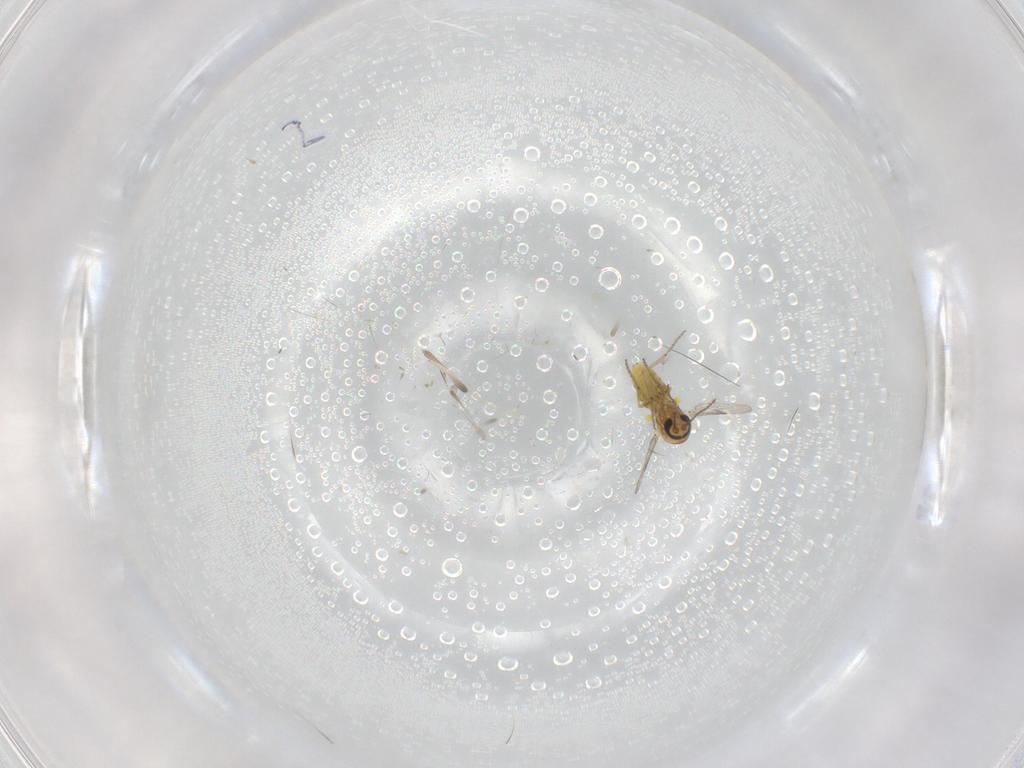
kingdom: Animalia
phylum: Arthropoda
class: Insecta
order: Diptera
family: Ceratopogonidae
